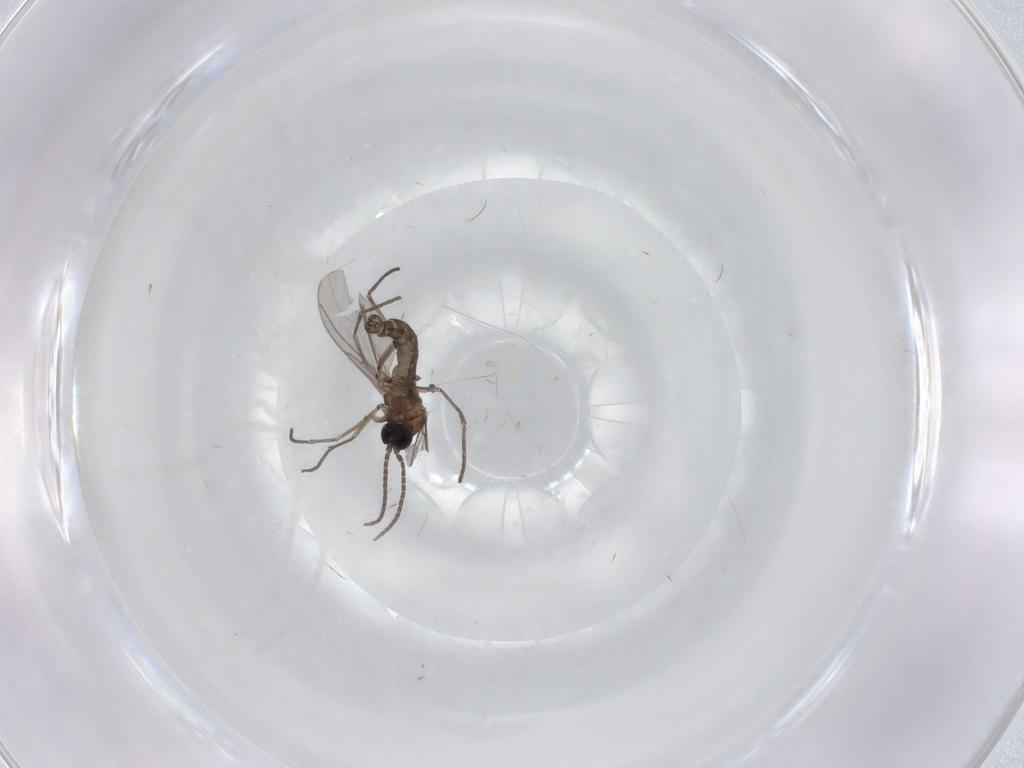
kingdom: Animalia
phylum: Arthropoda
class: Insecta
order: Diptera
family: Sciaridae
